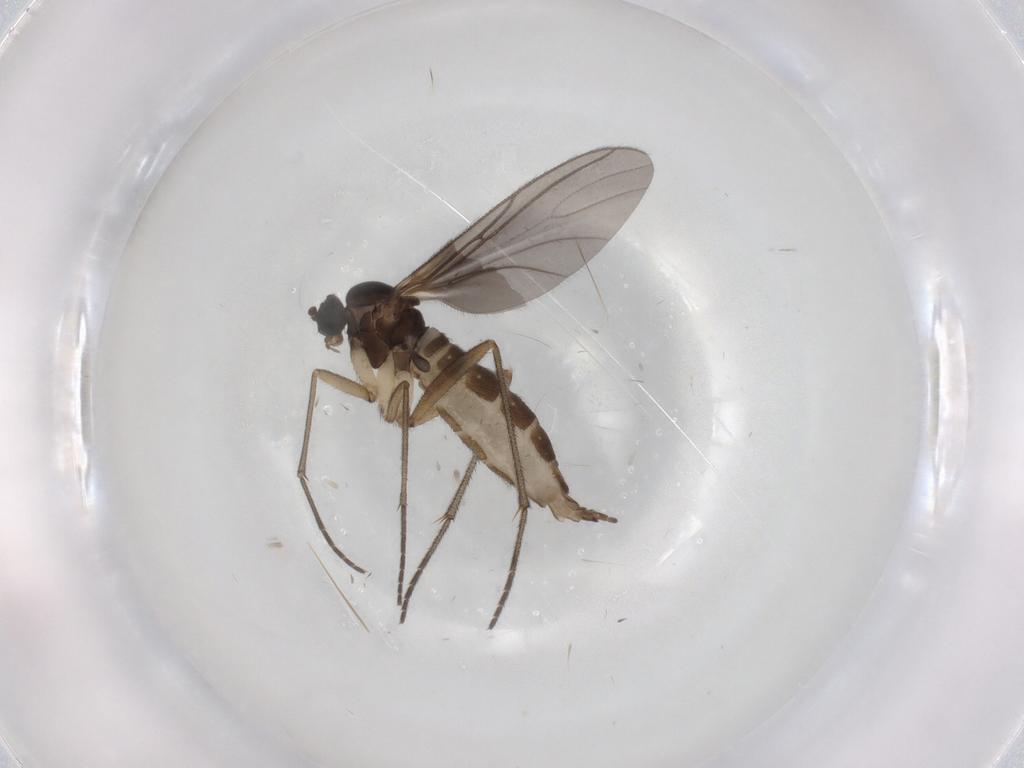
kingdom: Animalia
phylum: Arthropoda
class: Insecta
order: Diptera
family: Sciaridae
